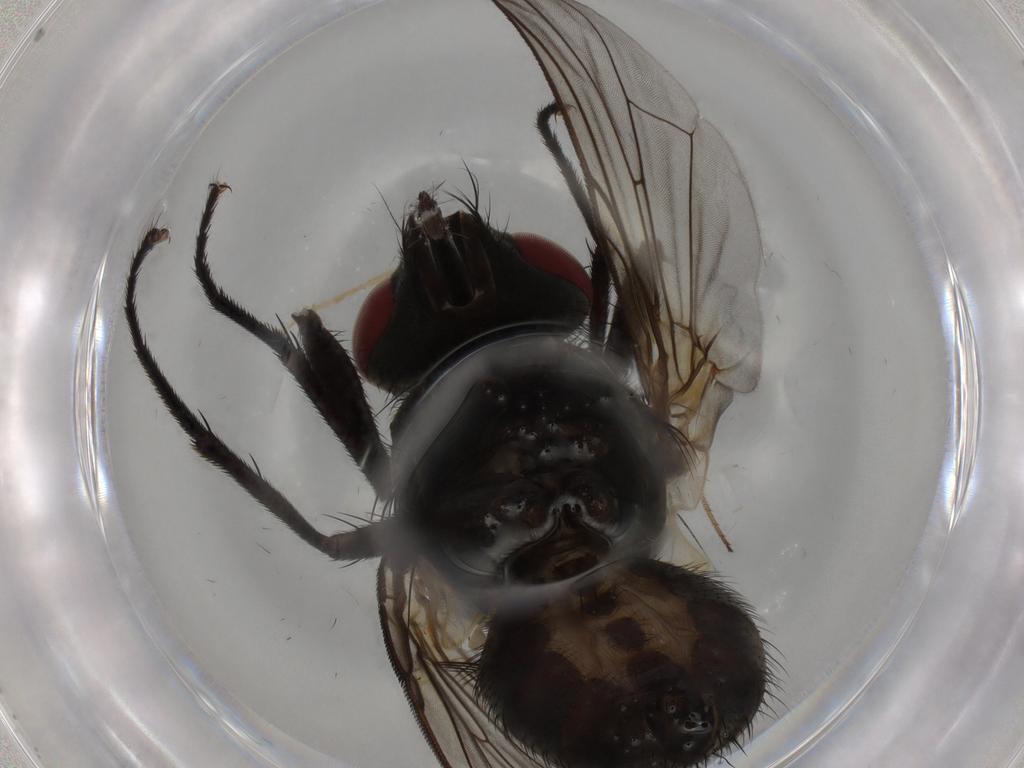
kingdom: Animalia
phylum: Arthropoda
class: Insecta
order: Diptera
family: Muscidae
